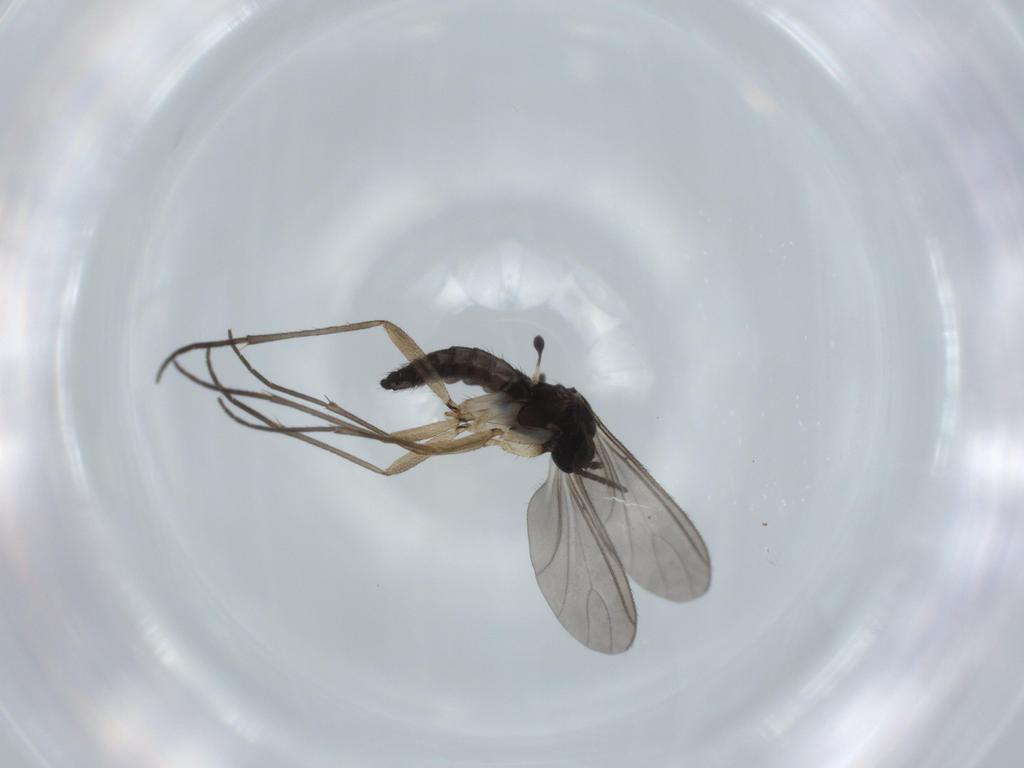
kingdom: Animalia
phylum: Arthropoda
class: Insecta
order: Diptera
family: Sciaridae
